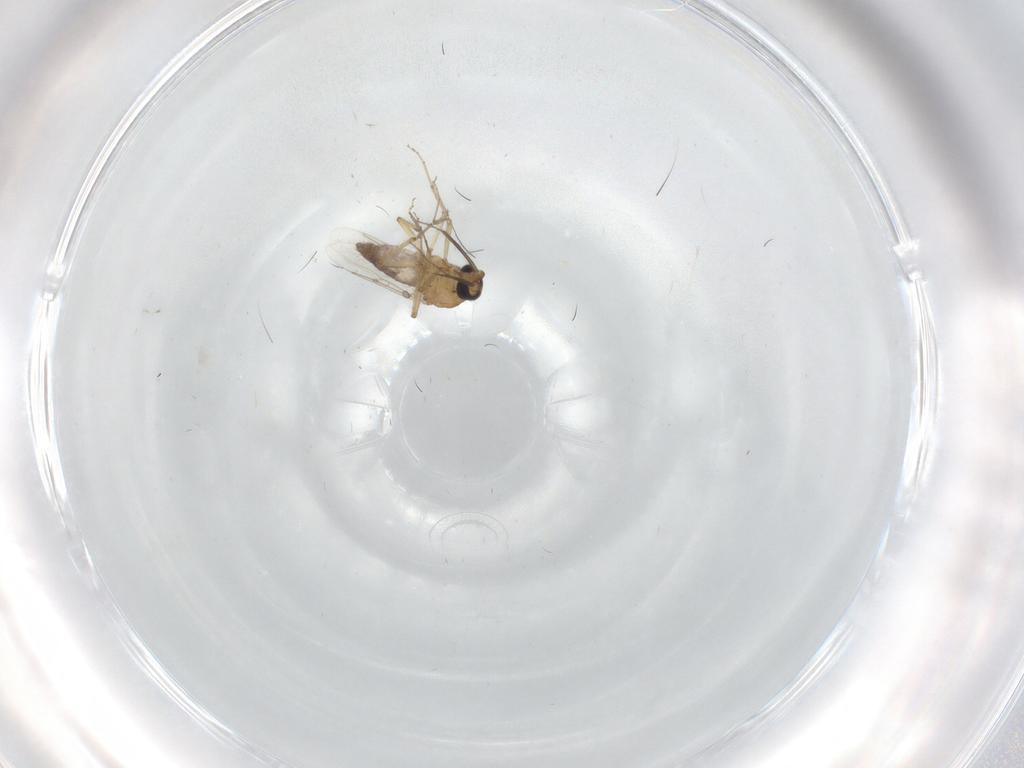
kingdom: Animalia
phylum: Arthropoda
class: Insecta
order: Diptera
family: Ceratopogonidae
